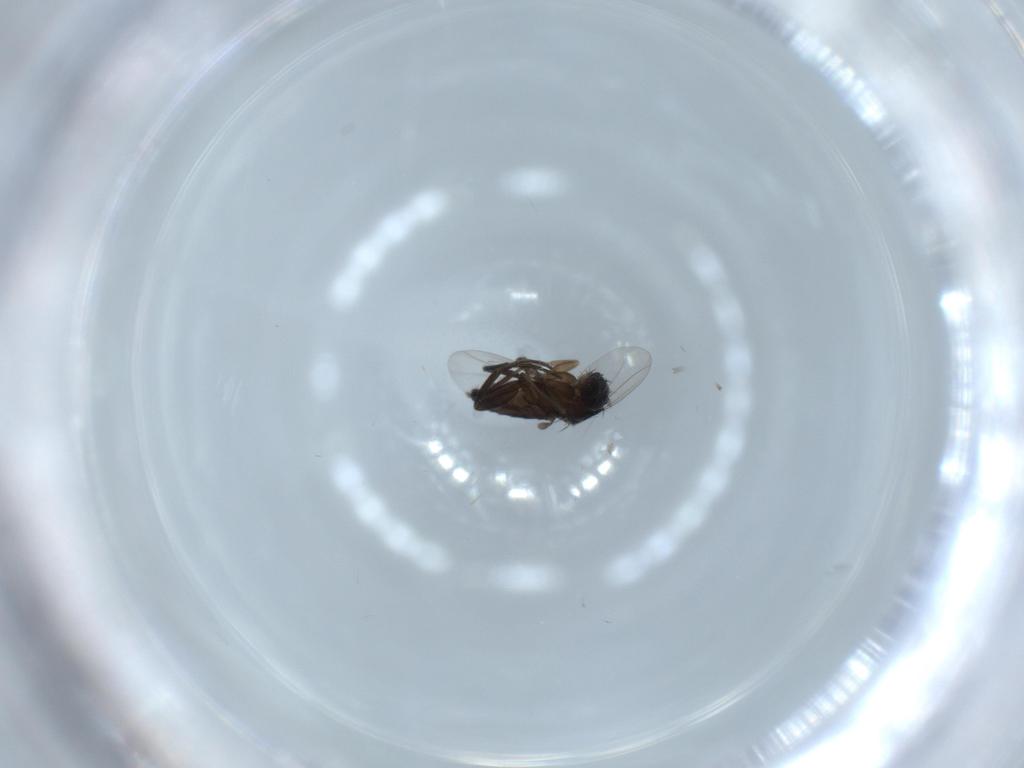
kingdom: Animalia
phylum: Arthropoda
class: Insecta
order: Diptera
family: Phoridae
